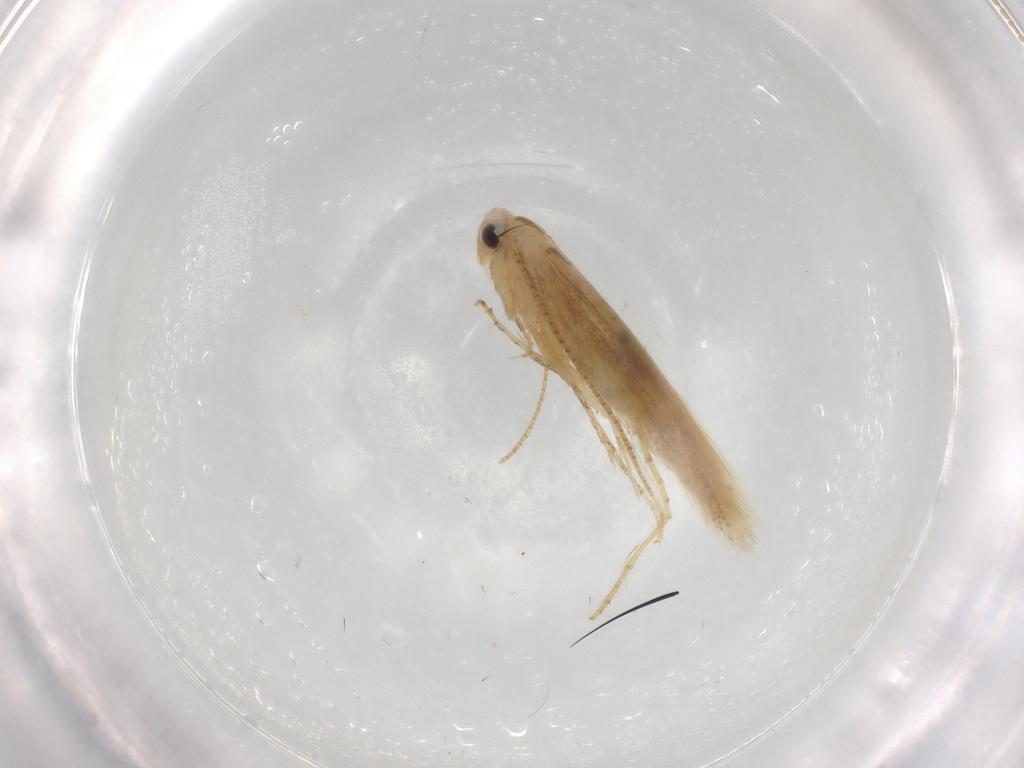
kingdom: Animalia
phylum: Arthropoda
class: Insecta
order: Lepidoptera
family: Bucculatricidae
